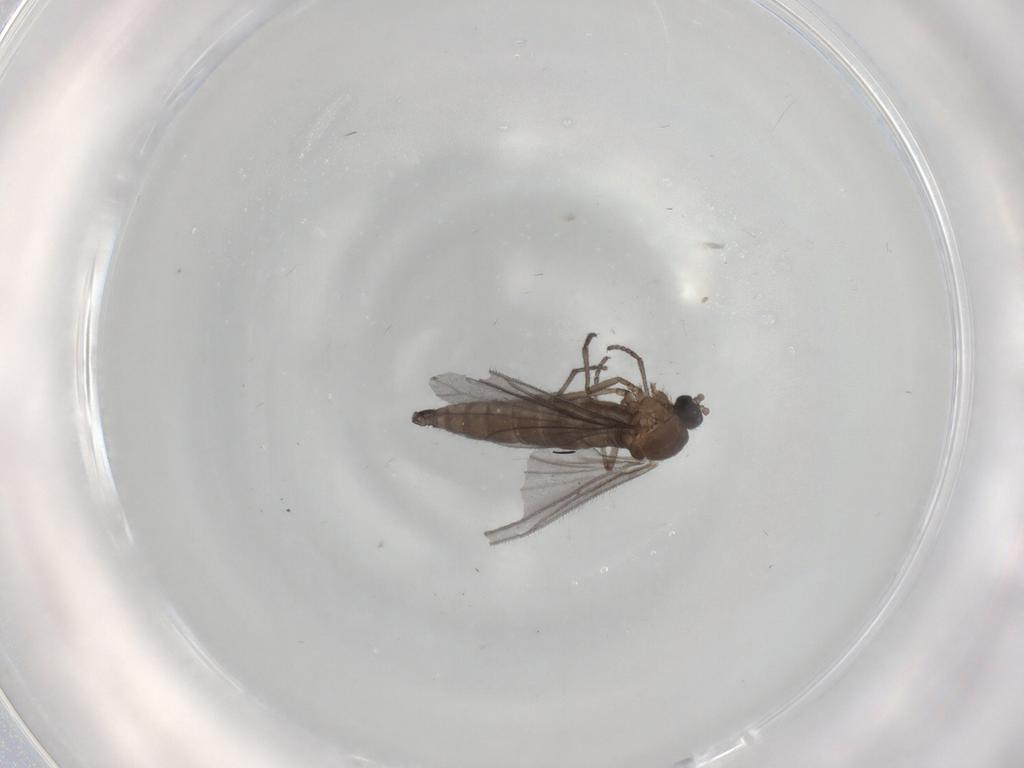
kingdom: Animalia
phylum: Arthropoda
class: Insecta
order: Diptera
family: Sciaridae
